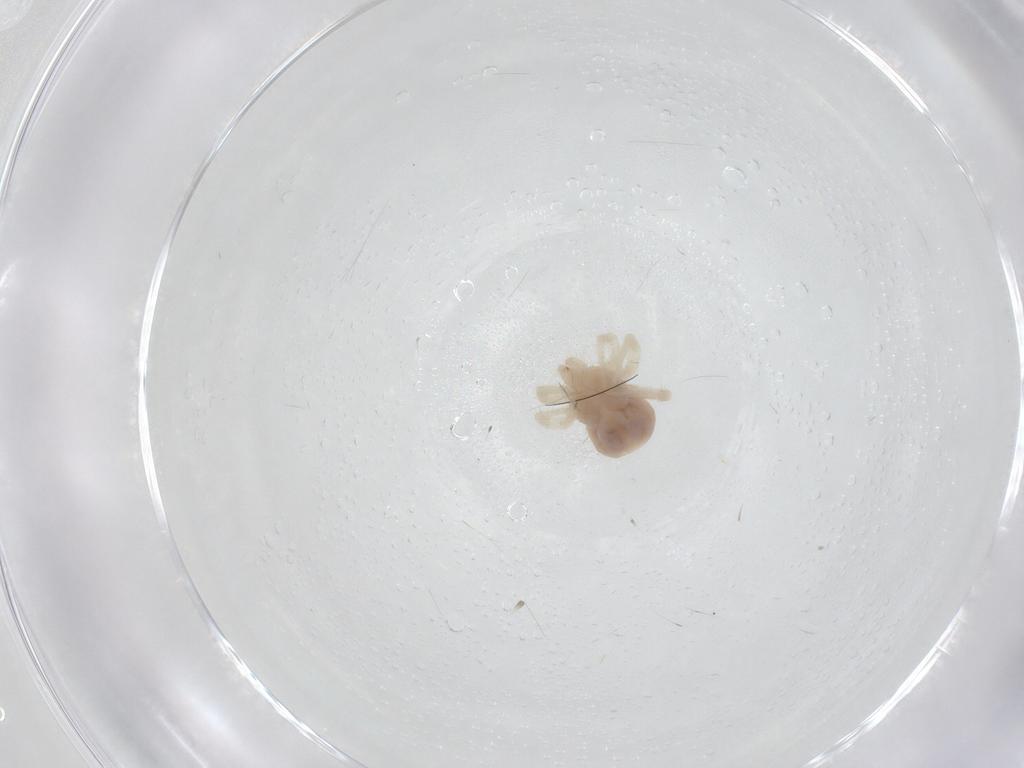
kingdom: Animalia
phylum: Arthropoda
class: Arachnida
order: Trombidiformes
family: Anystidae
